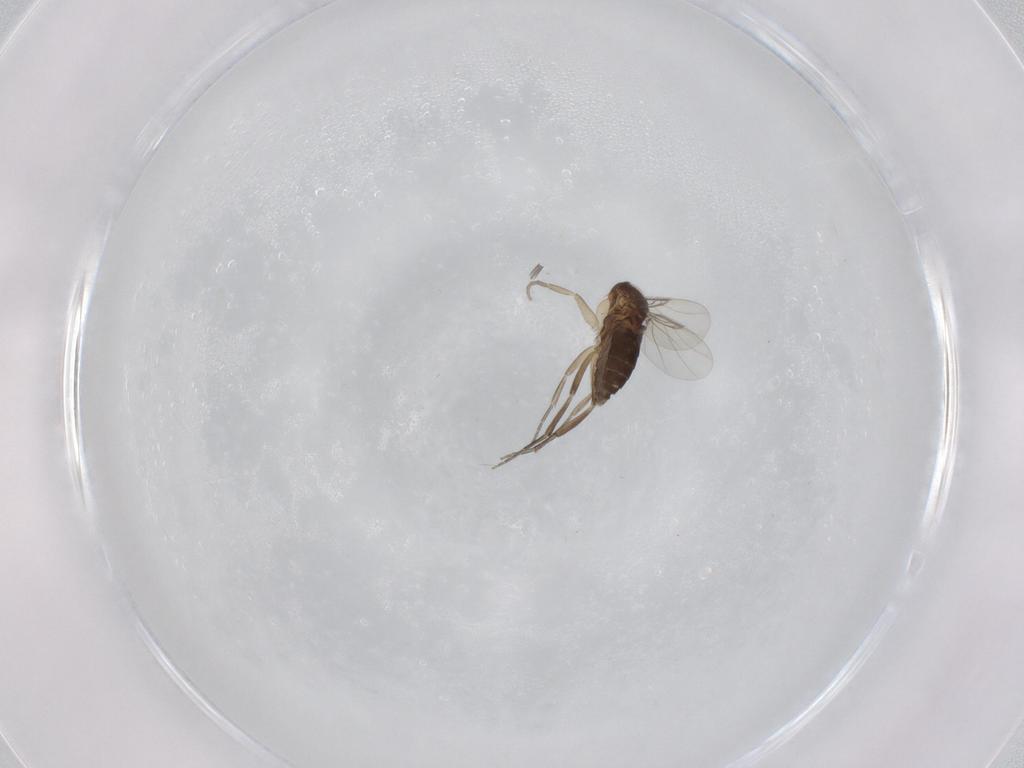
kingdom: Animalia
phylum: Arthropoda
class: Insecta
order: Diptera
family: Phoridae
